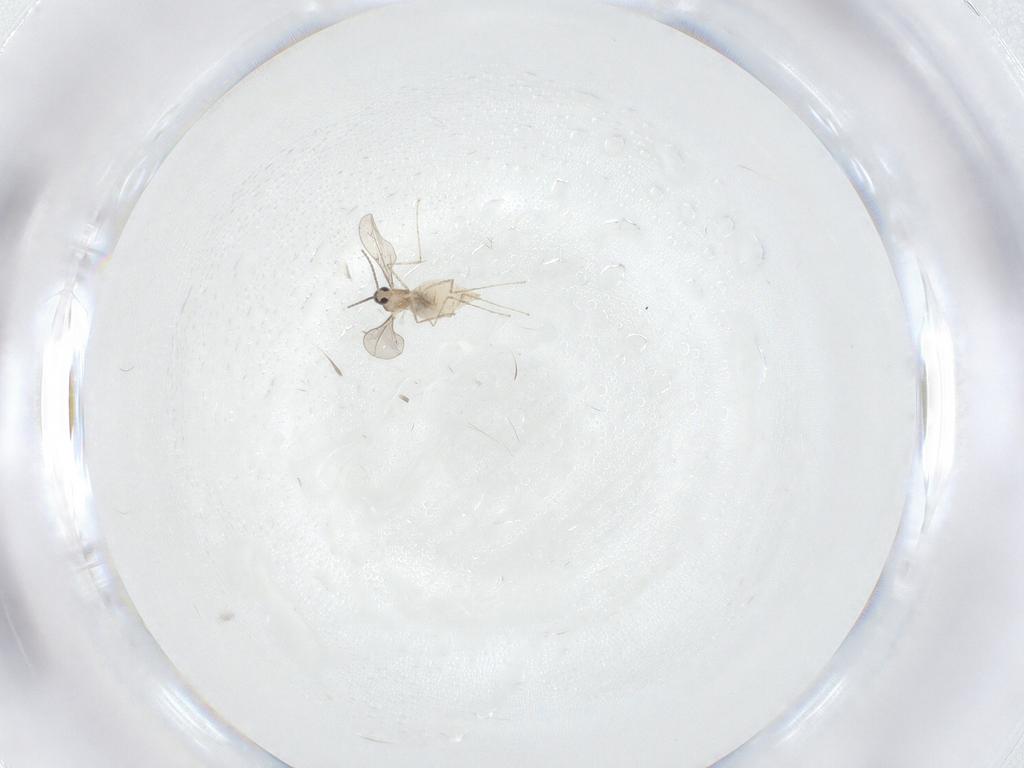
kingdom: Animalia
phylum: Arthropoda
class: Insecta
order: Diptera
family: Cecidomyiidae
